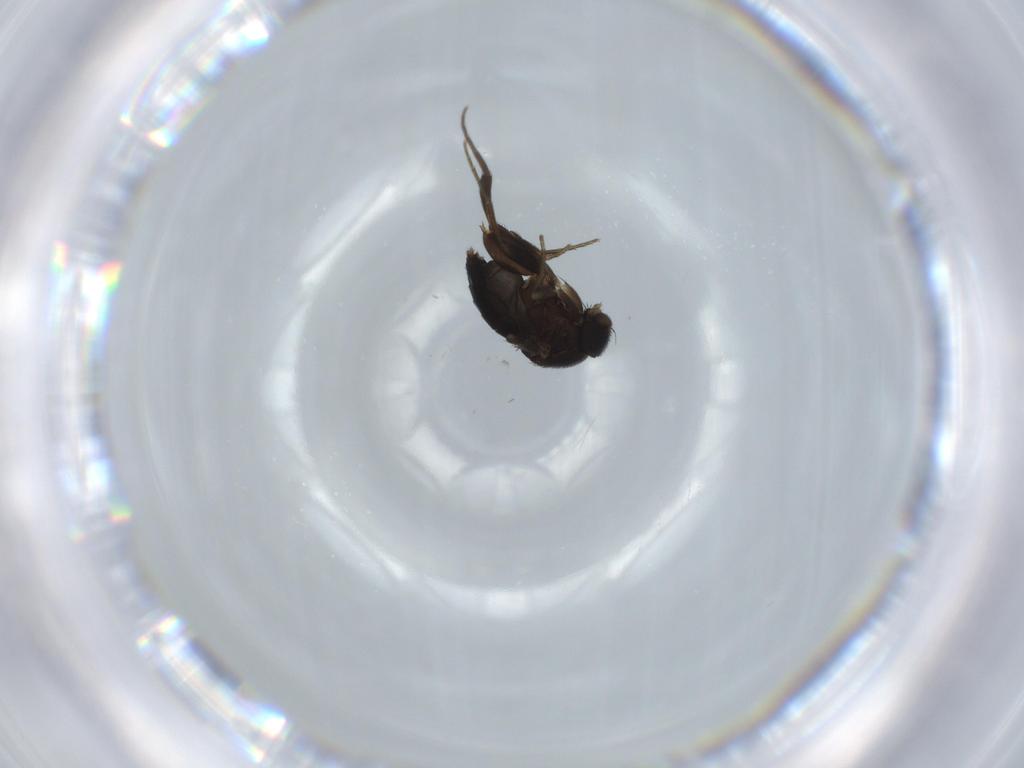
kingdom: Animalia
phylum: Arthropoda
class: Insecta
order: Diptera
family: Phoridae
